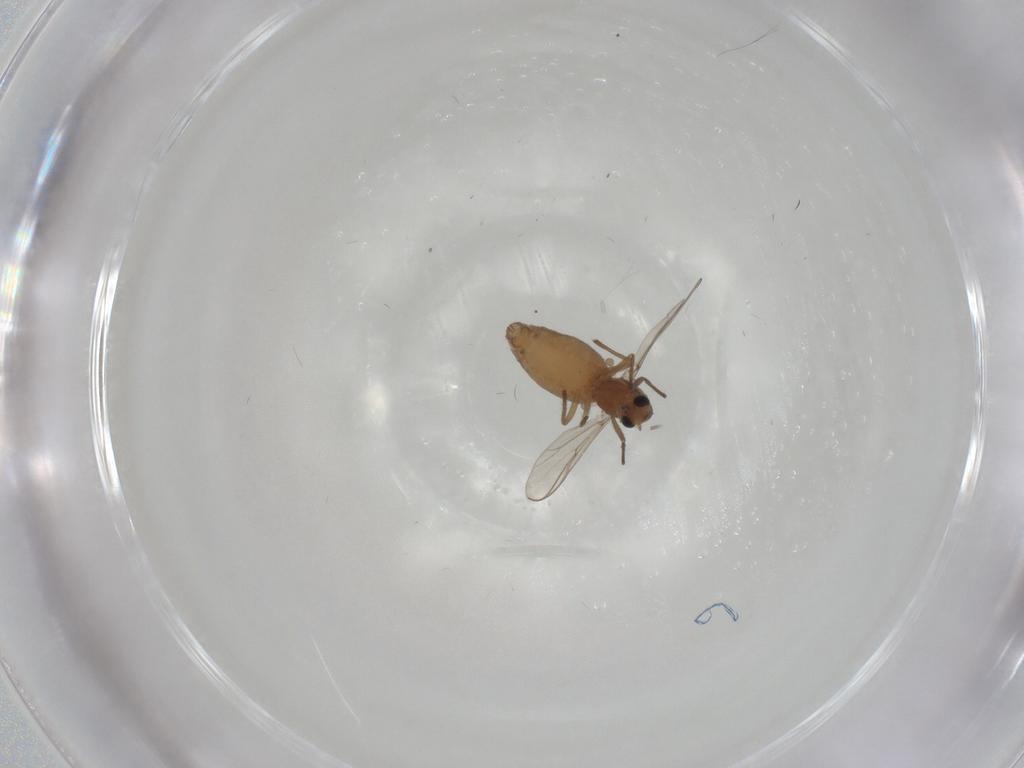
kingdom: Animalia
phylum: Arthropoda
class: Insecta
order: Diptera
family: Chironomidae
